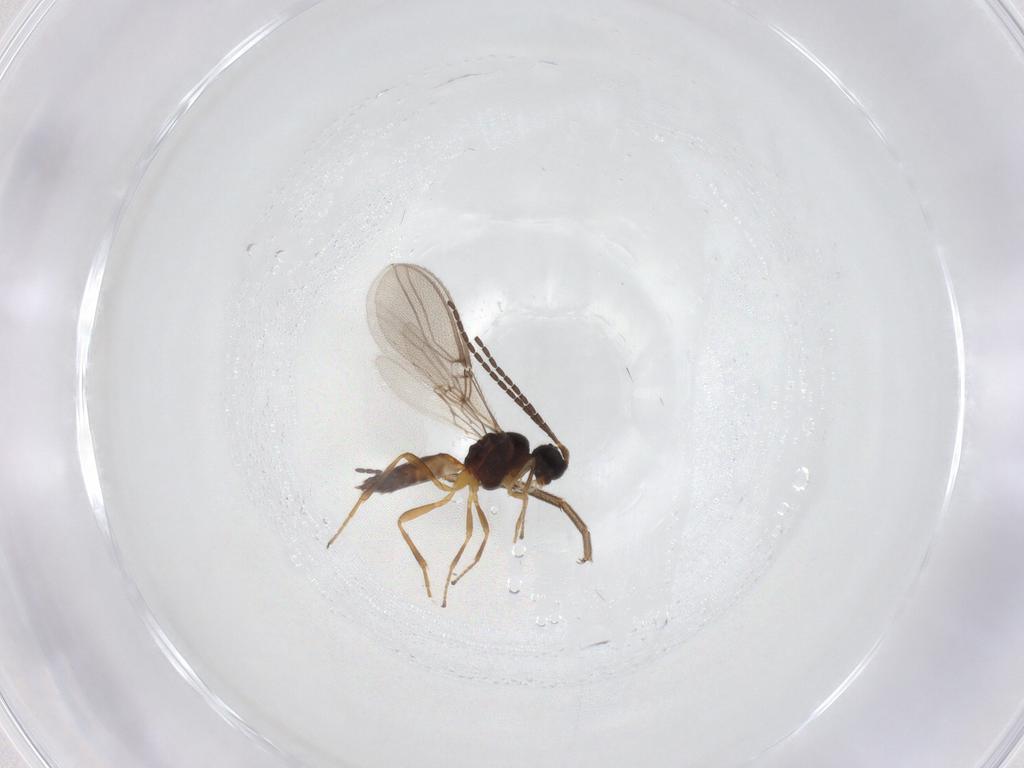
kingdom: Animalia
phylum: Arthropoda
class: Insecta
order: Hymenoptera
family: Braconidae
